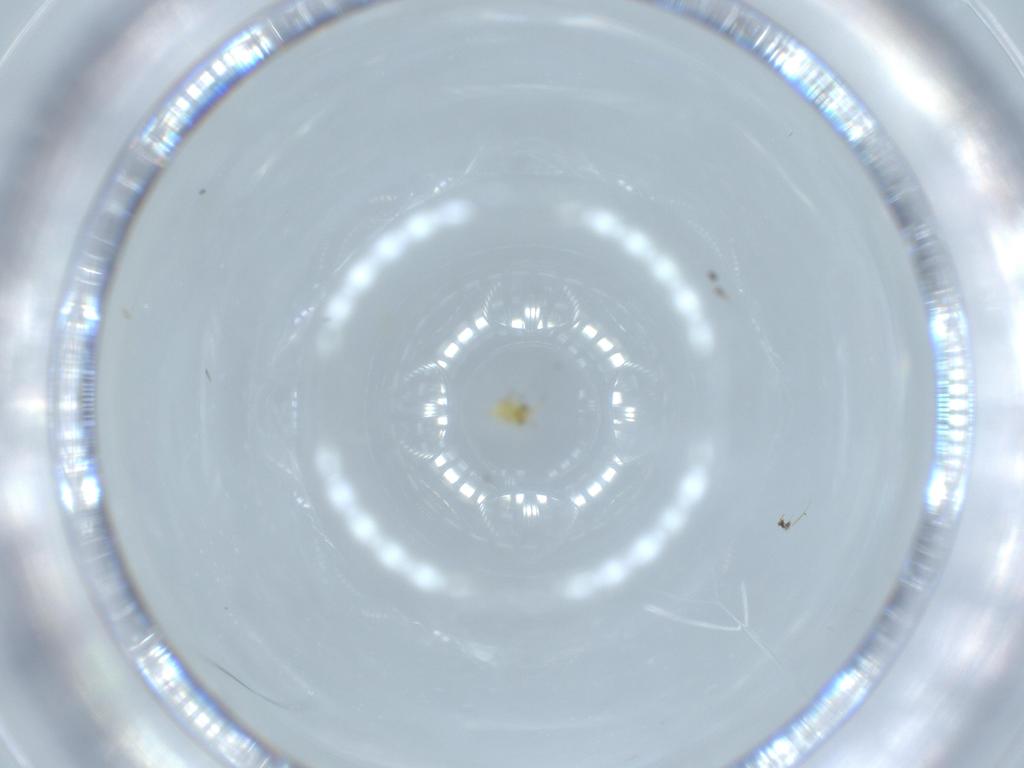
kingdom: Animalia
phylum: Arthropoda
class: Insecta
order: Hymenoptera
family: Aphelinidae
